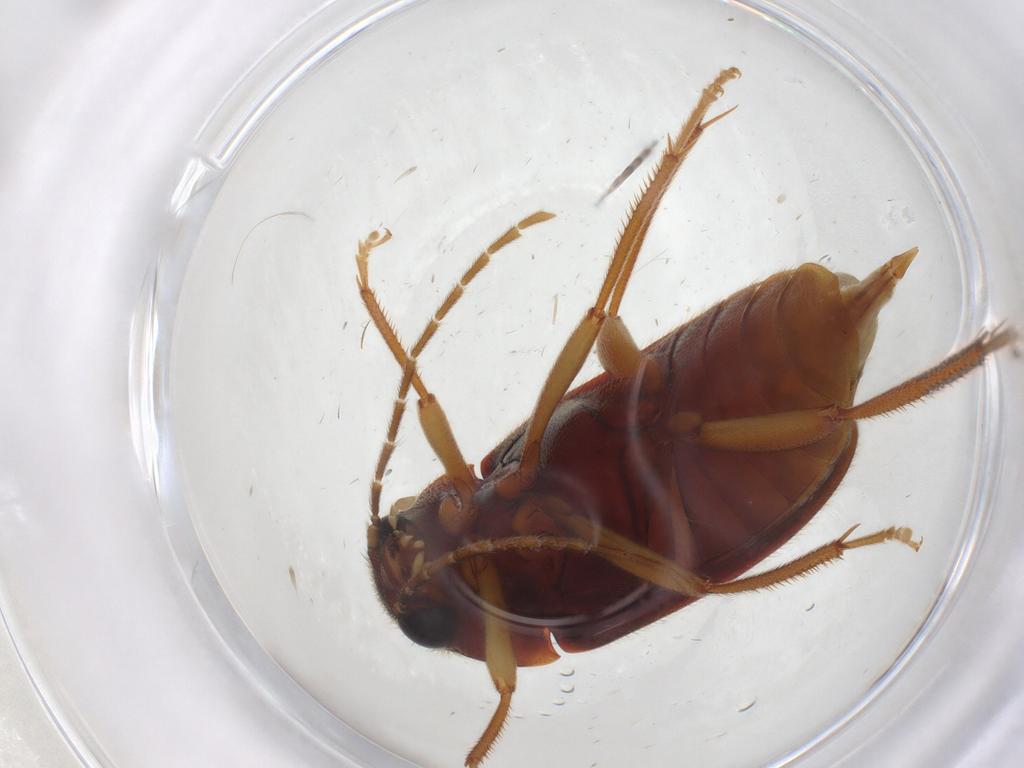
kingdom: Animalia
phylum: Arthropoda
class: Insecta
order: Coleoptera
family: Ptilodactylidae
